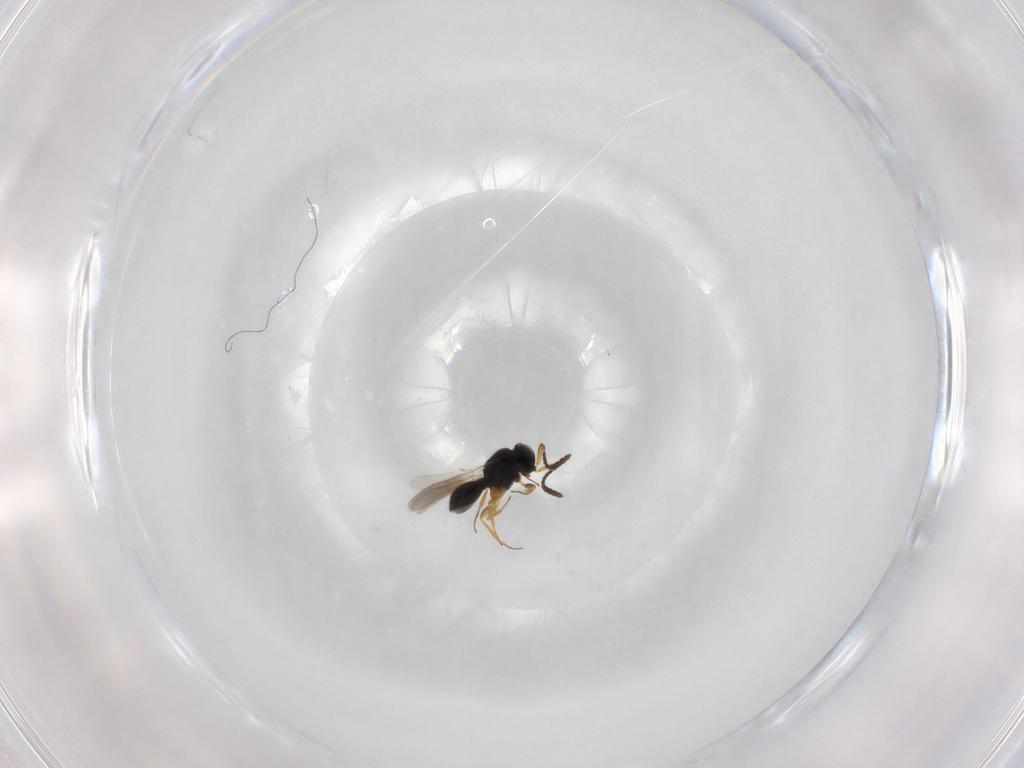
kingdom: Animalia
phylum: Arthropoda
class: Insecta
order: Hymenoptera
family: Scelionidae
